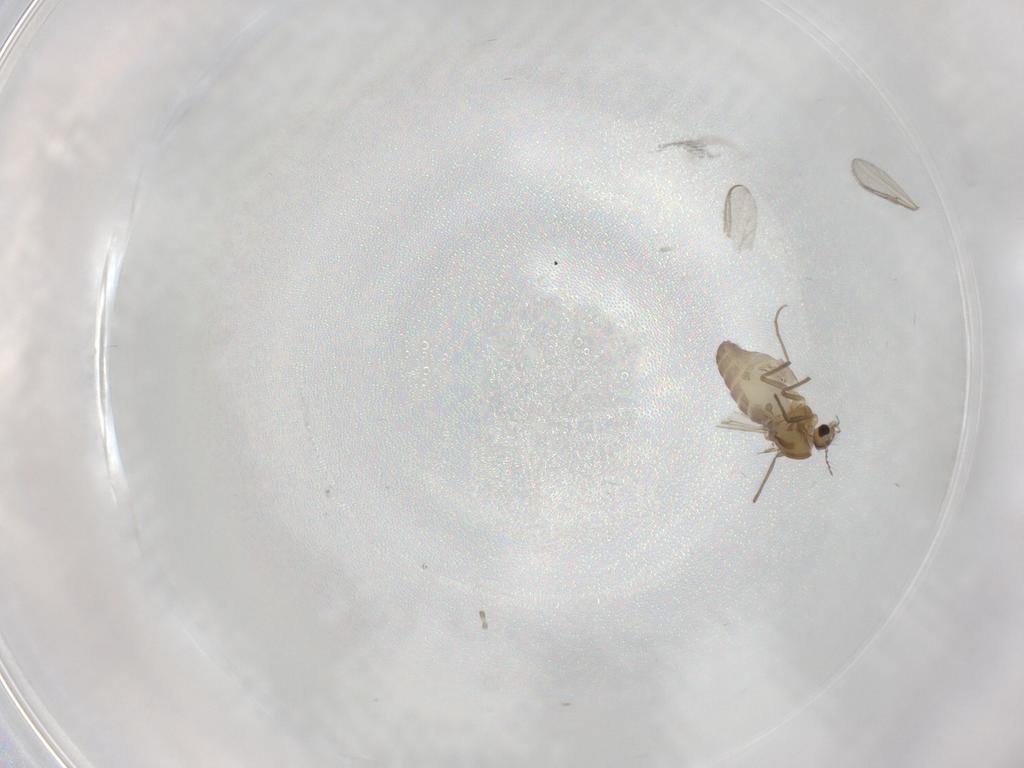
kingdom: Animalia
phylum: Arthropoda
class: Insecta
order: Diptera
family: Chironomidae
